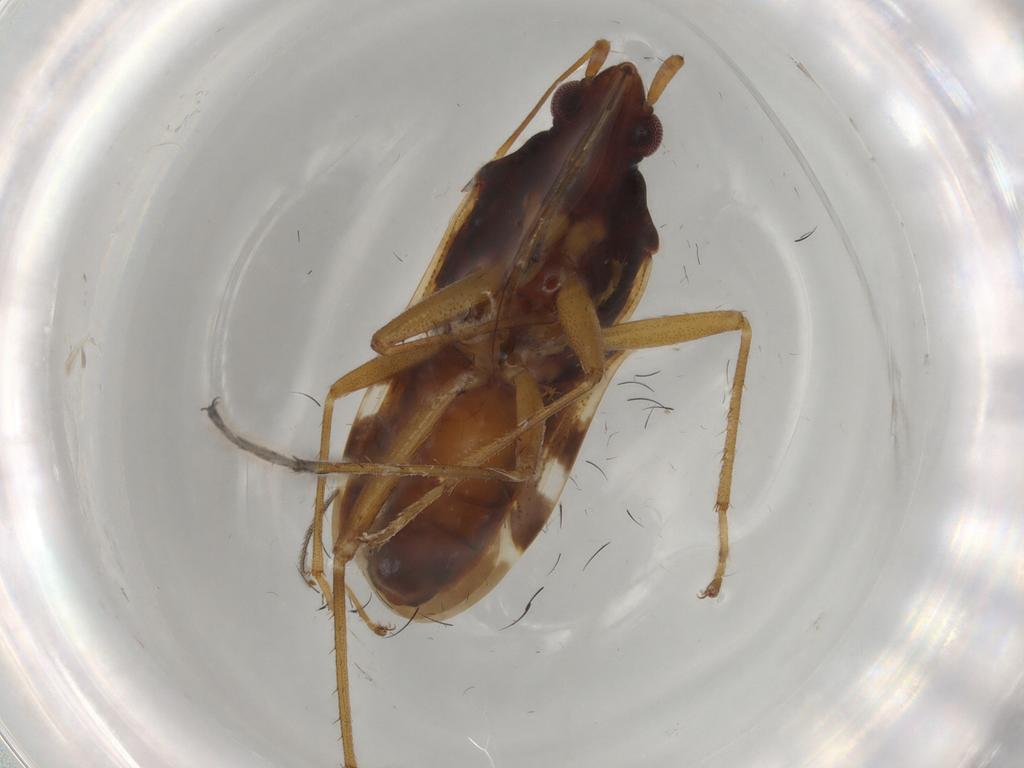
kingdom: Animalia
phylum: Arthropoda
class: Insecta
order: Hemiptera
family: Rhyparochromidae
